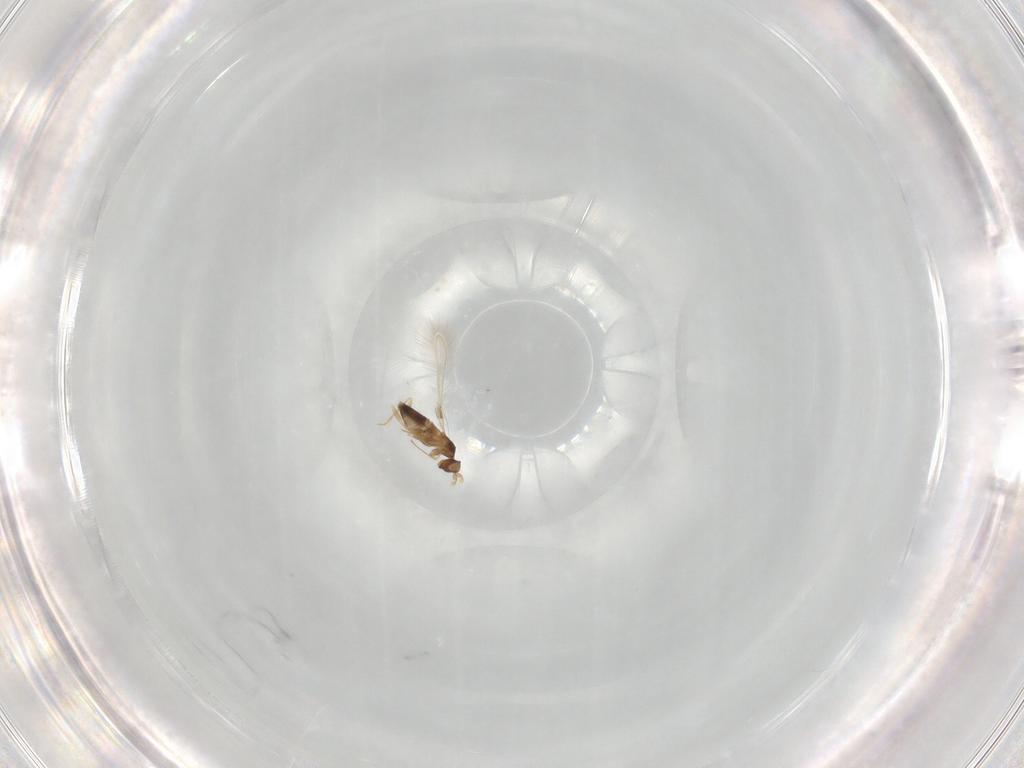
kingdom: Animalia
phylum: Arthropoda
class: Insecta
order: Hymenoptera
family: Mymaridae
